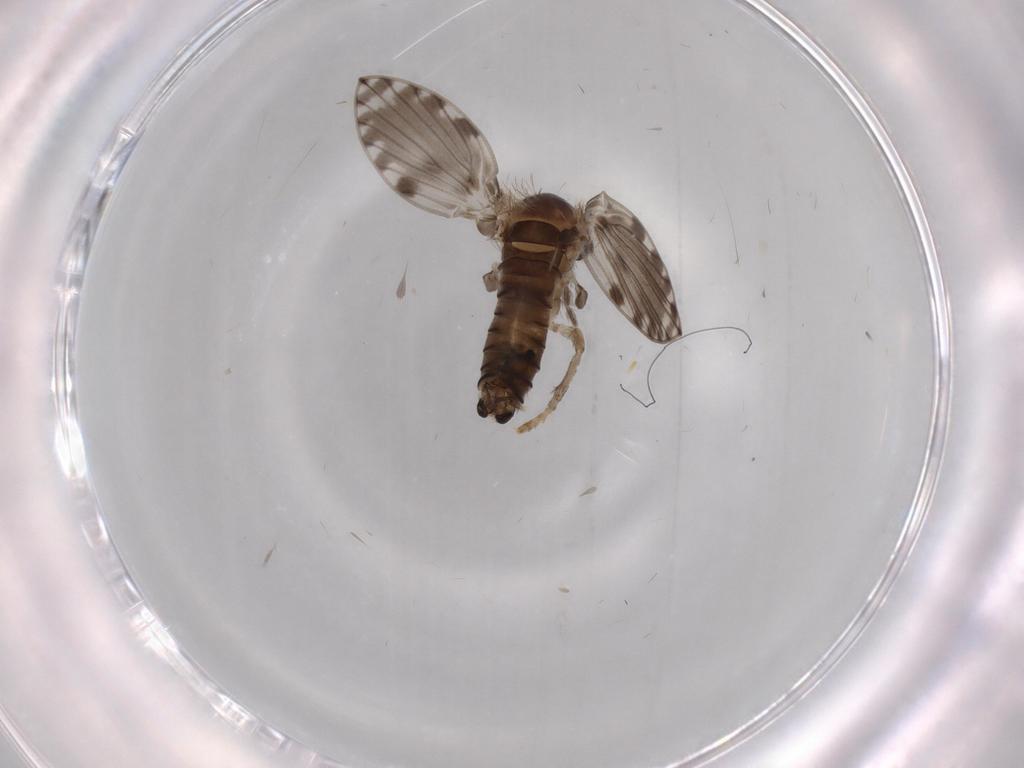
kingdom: Animalia
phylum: Arthropoda
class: Insecta
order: Diptera
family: Psychodidae
